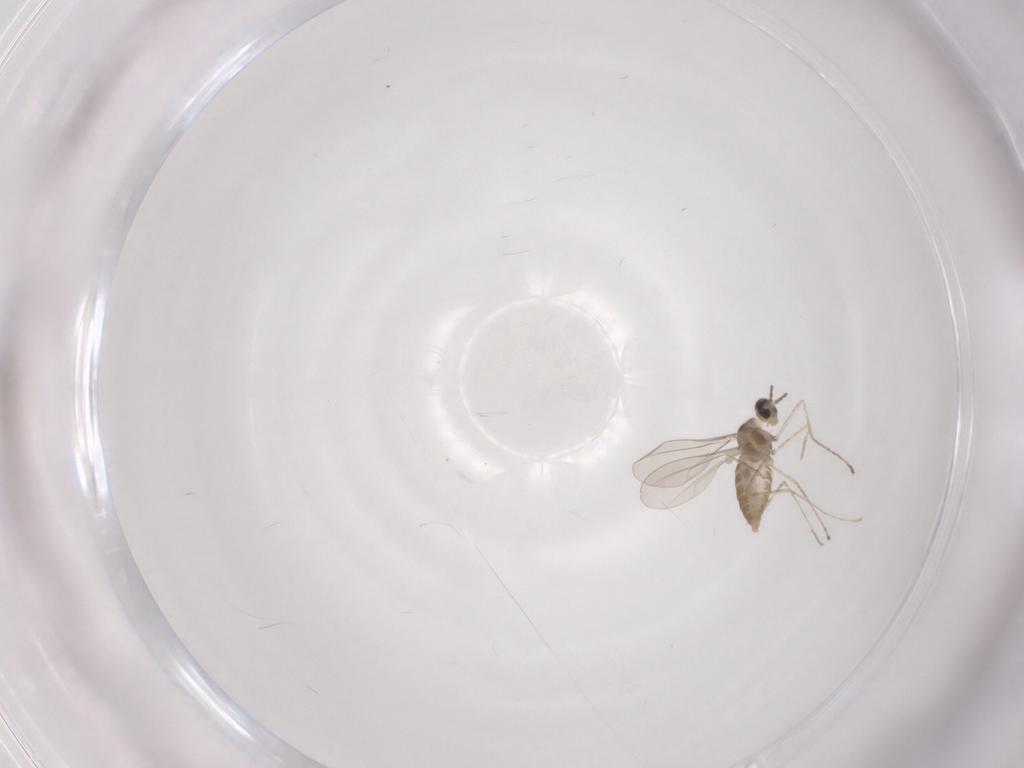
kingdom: Animalia
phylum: Arthropoda
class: Insecta
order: Diptera
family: Cecidomyiidae
